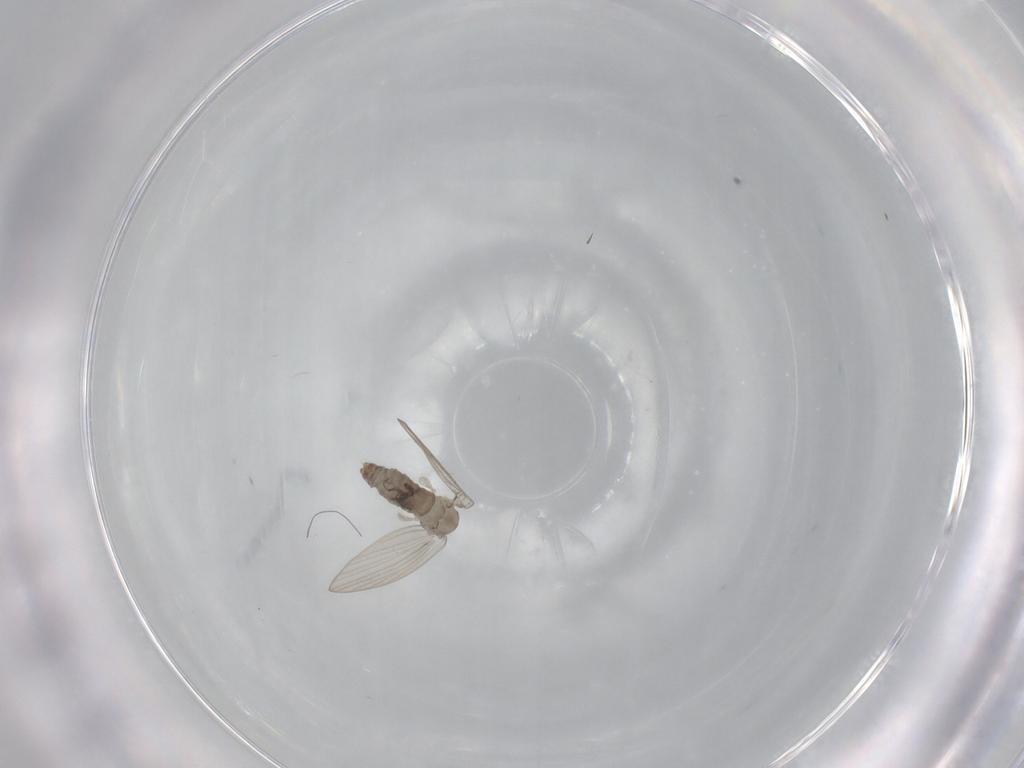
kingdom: Animalia
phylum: Arthropoda
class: Insecta
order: Diptera
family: Psychodidae
